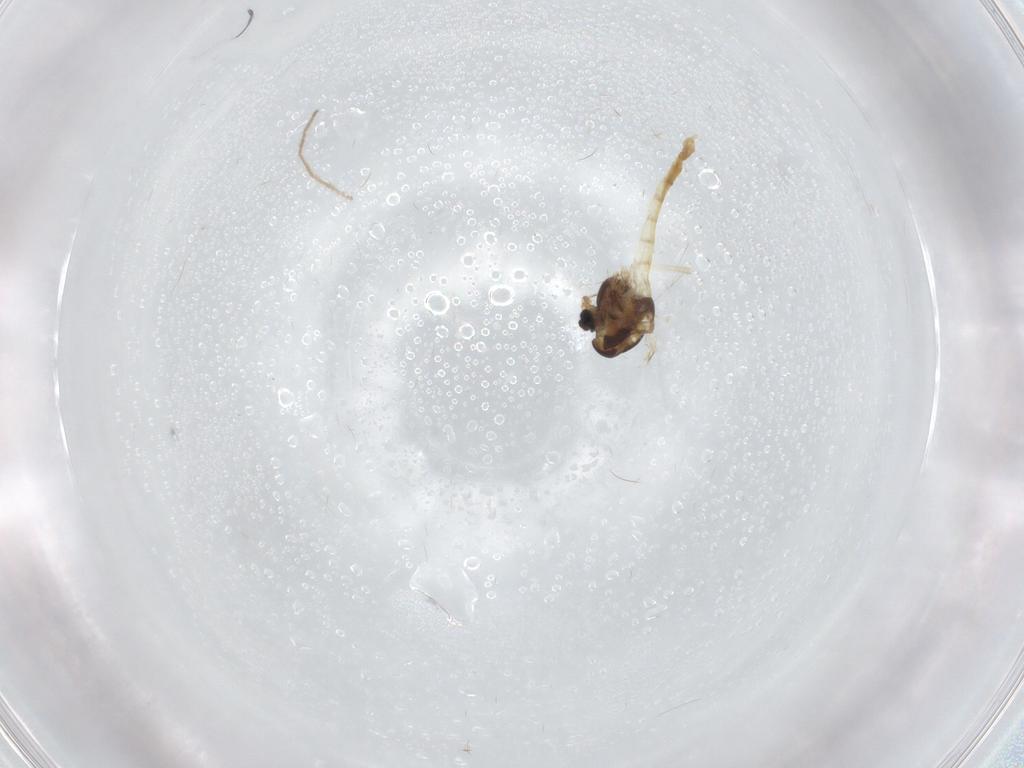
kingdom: Animalia
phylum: Arthropoda
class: Insecta
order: Diptera
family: Chironomidae
